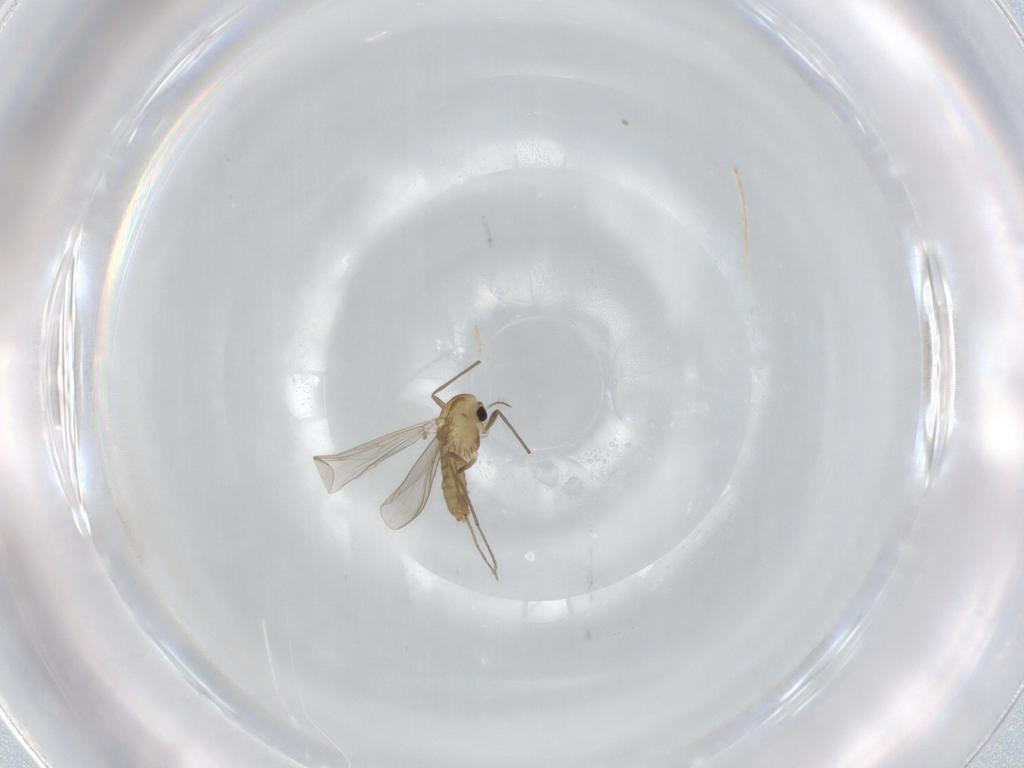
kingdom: Animalia
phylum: Arthropoda
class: Insecta
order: Diptera
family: Chironomidae
